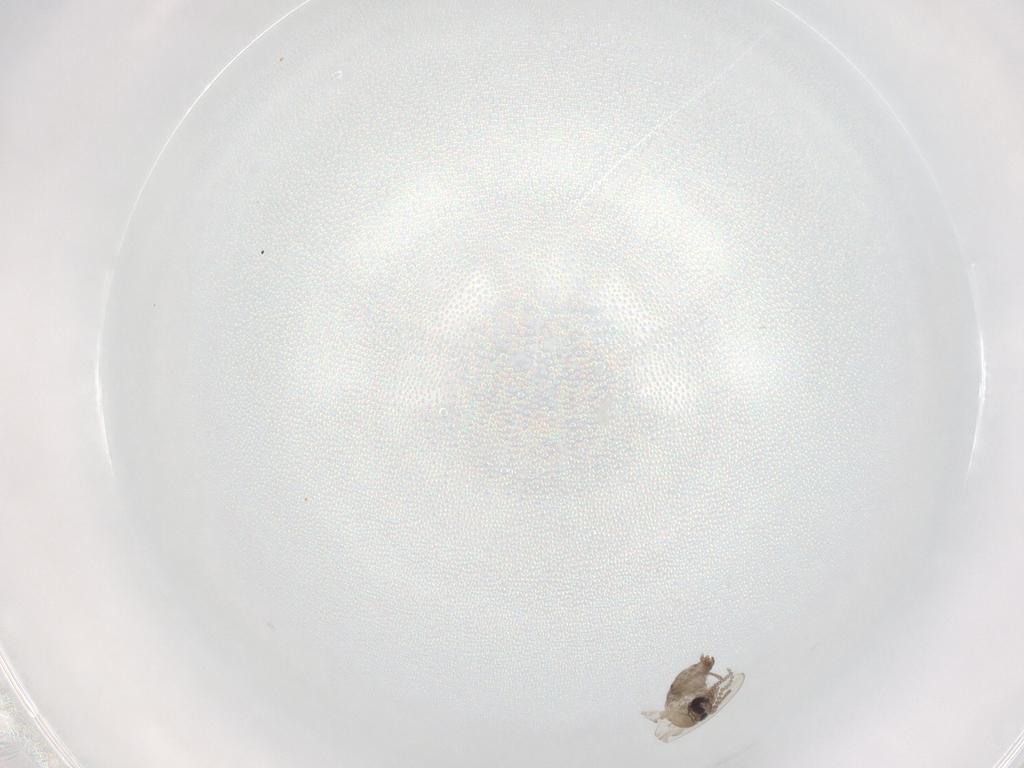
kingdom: Animalia
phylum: Arthropoda
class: Insecta
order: Diptera
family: Psychodidae
